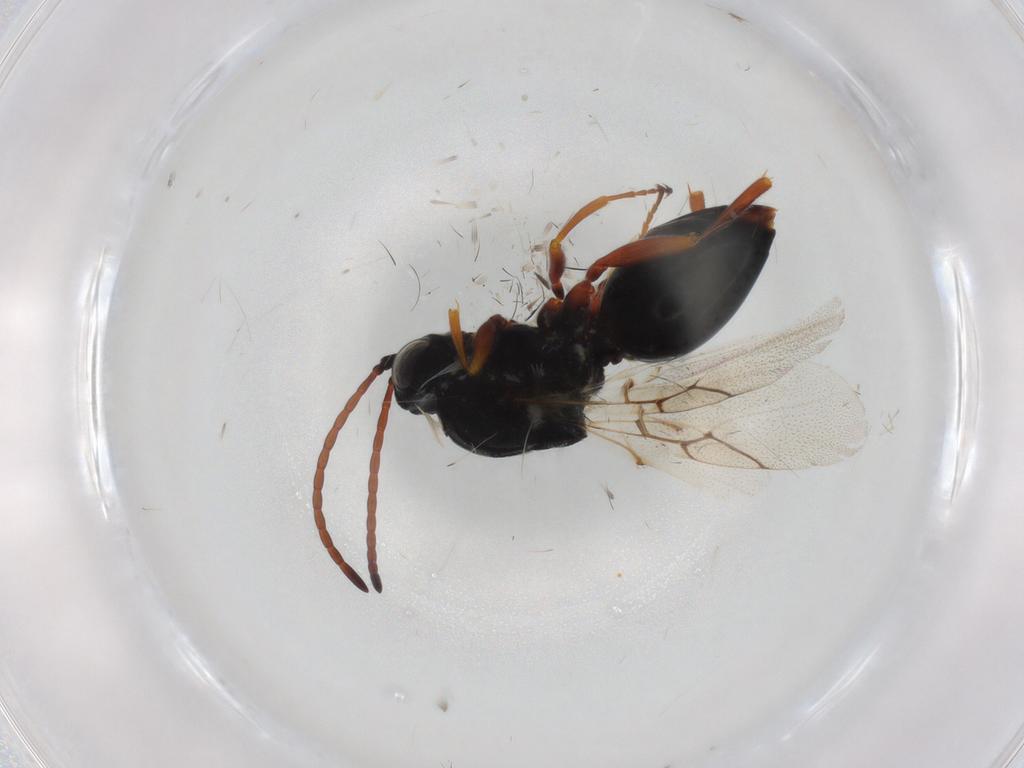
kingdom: Animalia
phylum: Arthropoda
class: Insecta
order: Hymenoptera
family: Figitidae
